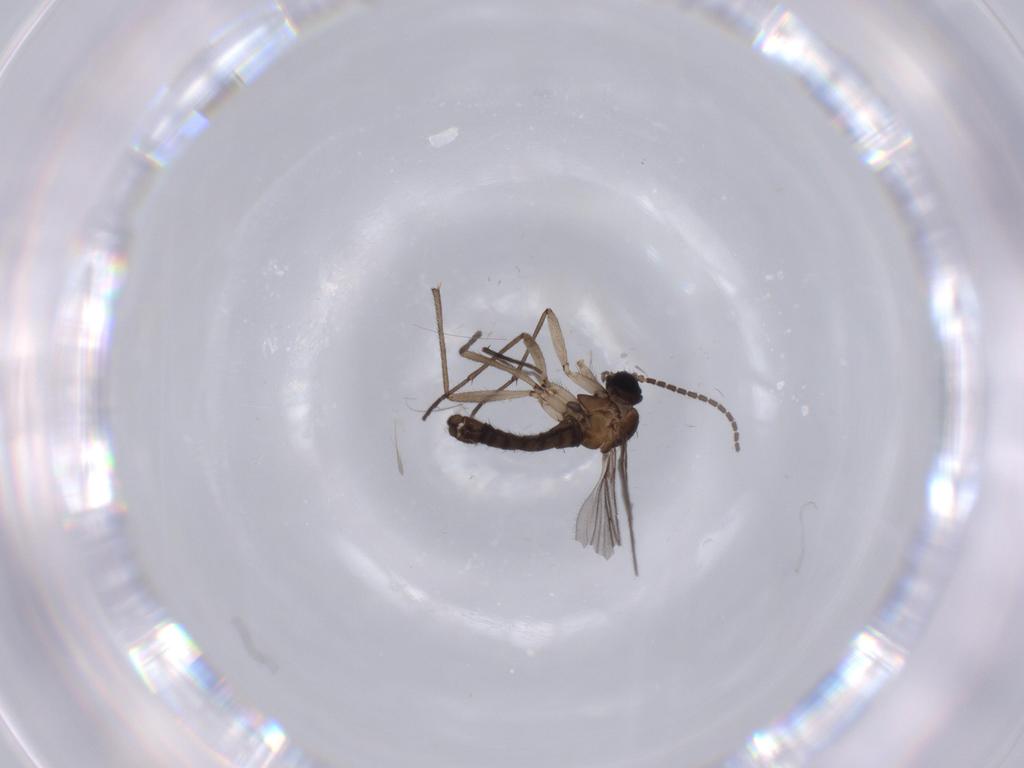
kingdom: Animalia
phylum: Arthropoda
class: Insecta
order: Diptera
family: Sciaridae
